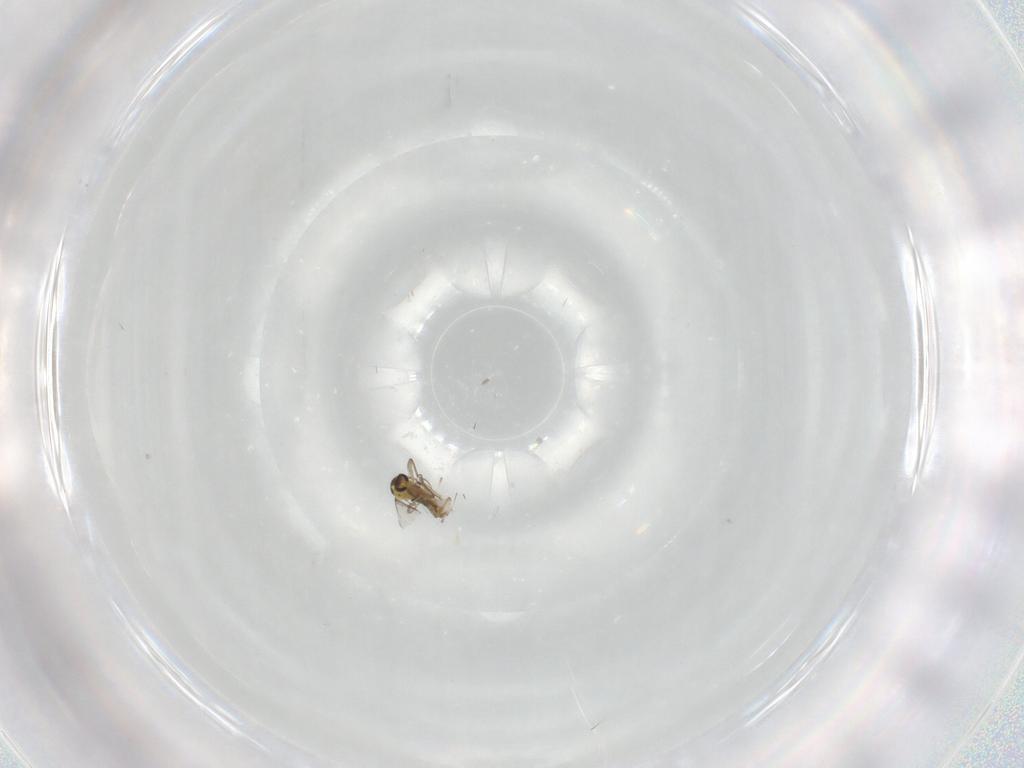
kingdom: Animalia
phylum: Arthropoda
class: Insecta
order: Diptera
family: Chironomidae
